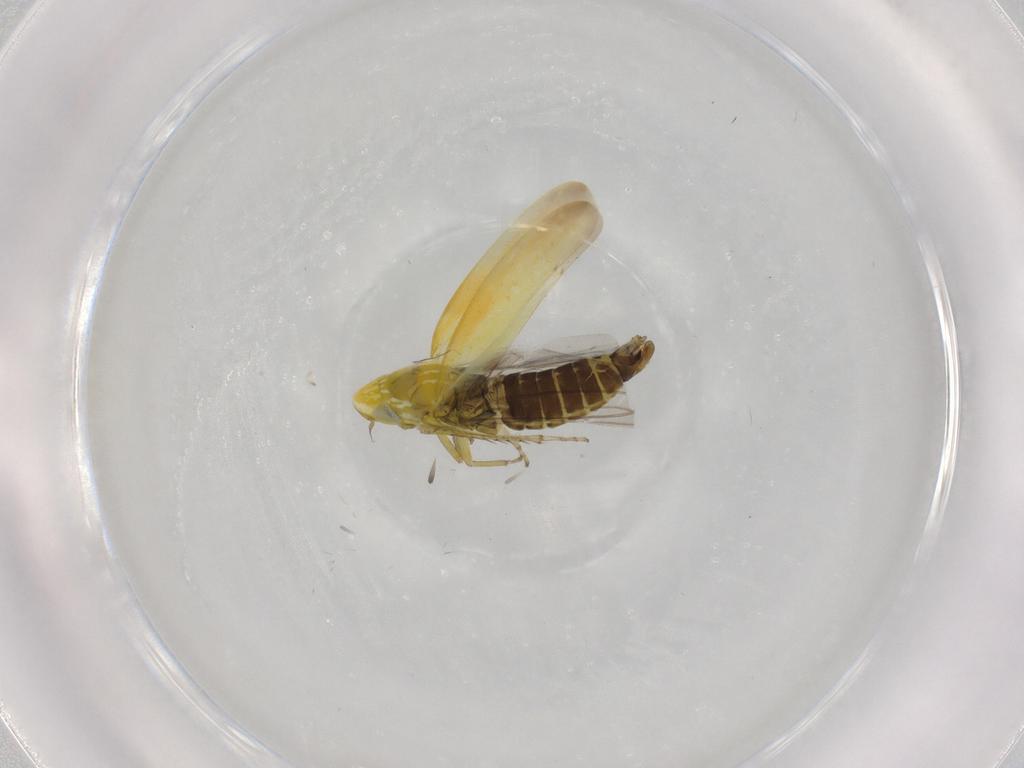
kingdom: Animalia
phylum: Arthropoda
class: Insecta
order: Hemiptera
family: Cicadellidae
